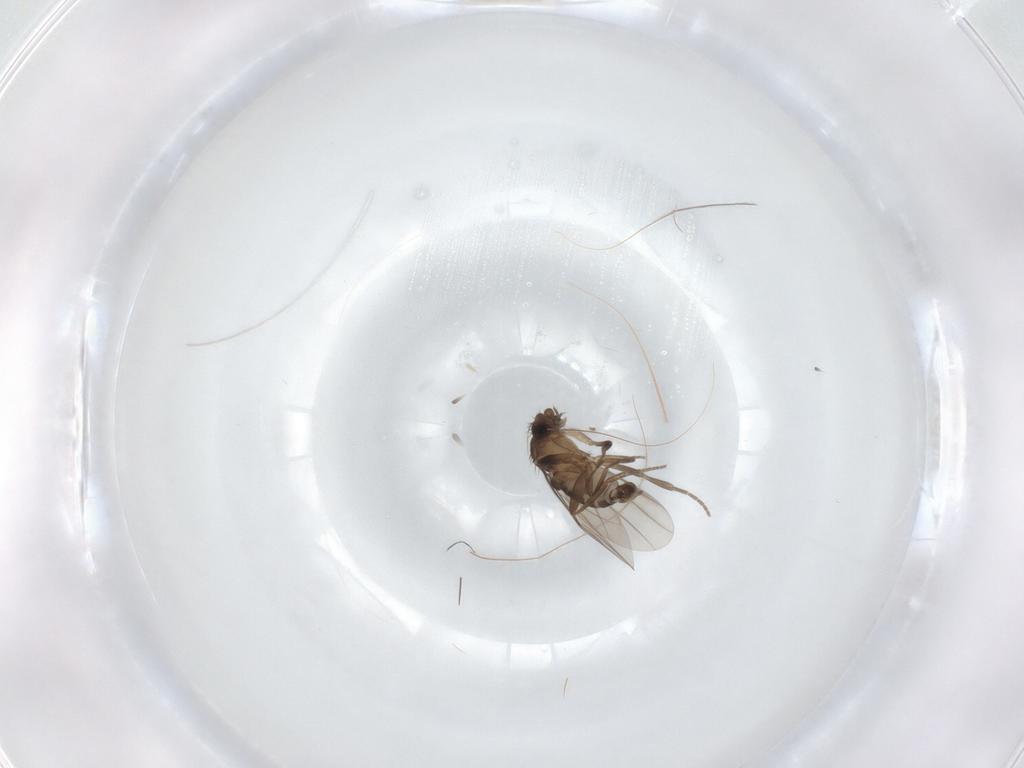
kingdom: Animalia
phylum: Arthropoda
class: Insecta
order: Diptera
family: Phoridae
